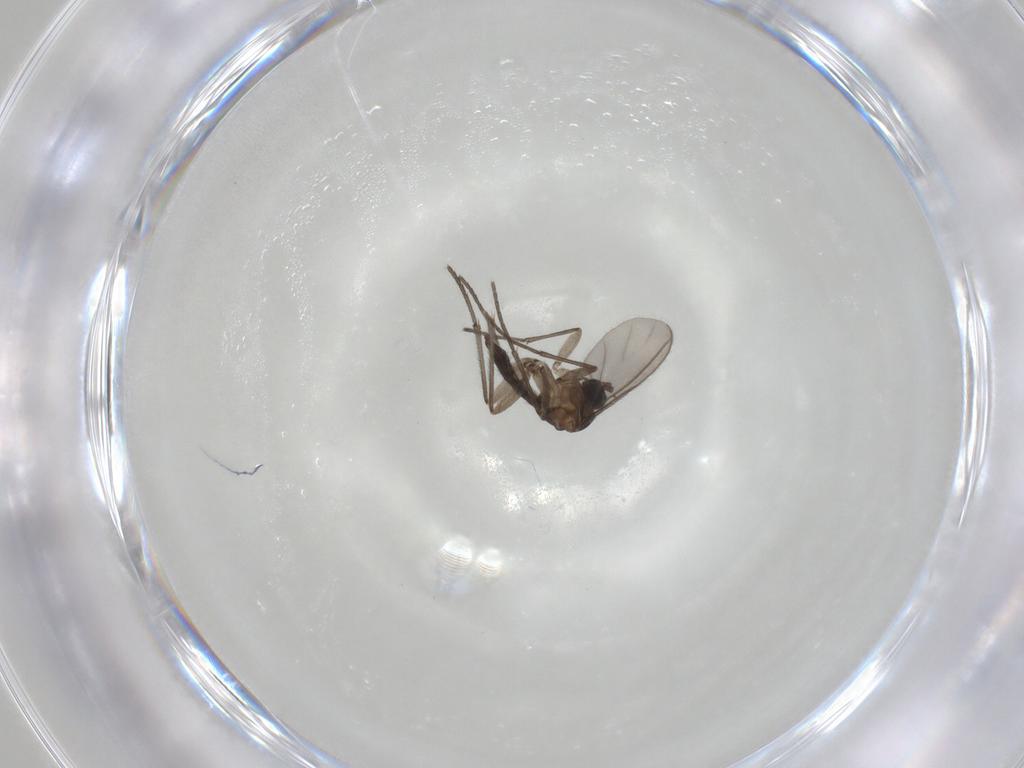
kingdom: Animalia
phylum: Arthropoda
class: Insecta
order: Diptera
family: Sciaridae
